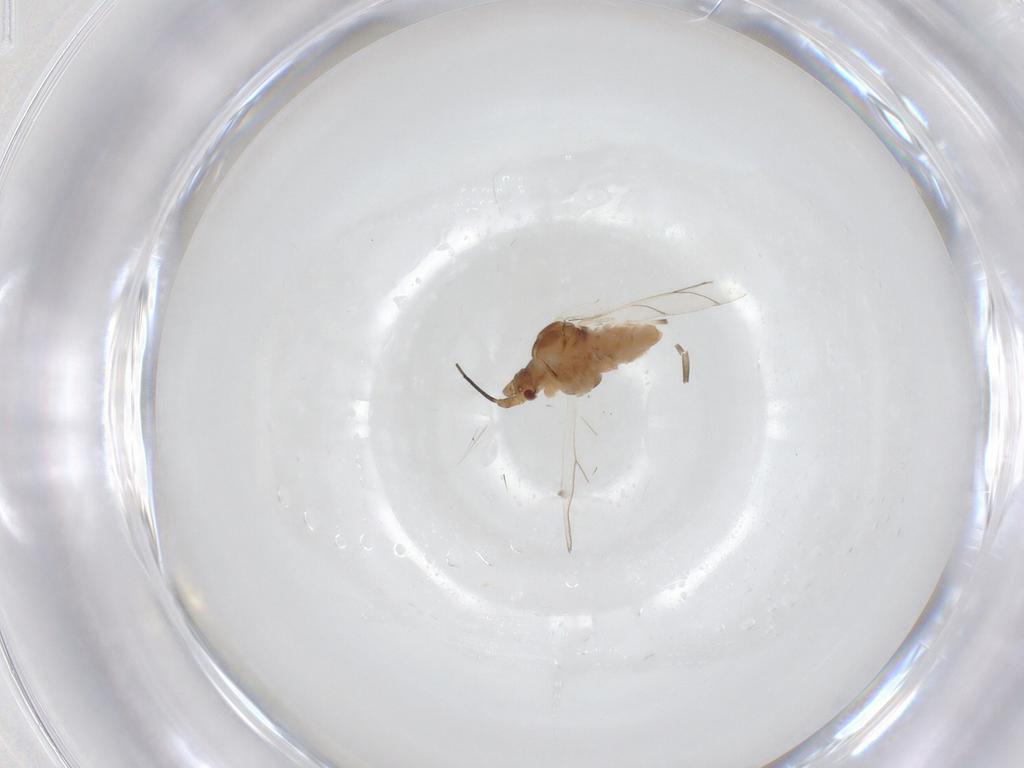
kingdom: Animalia
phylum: Arthropoda
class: Insecta
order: Hemiptera
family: Aphididae
